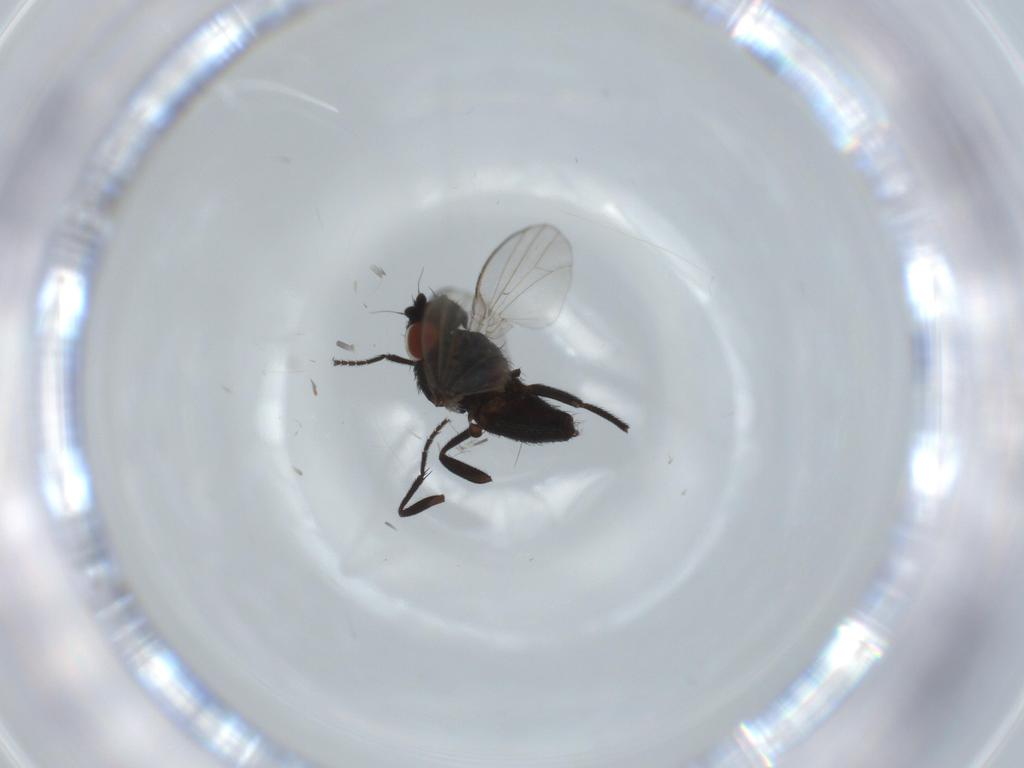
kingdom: Animalia
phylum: Arthropoda
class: Insecta
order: Diptera
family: Milichiidae
